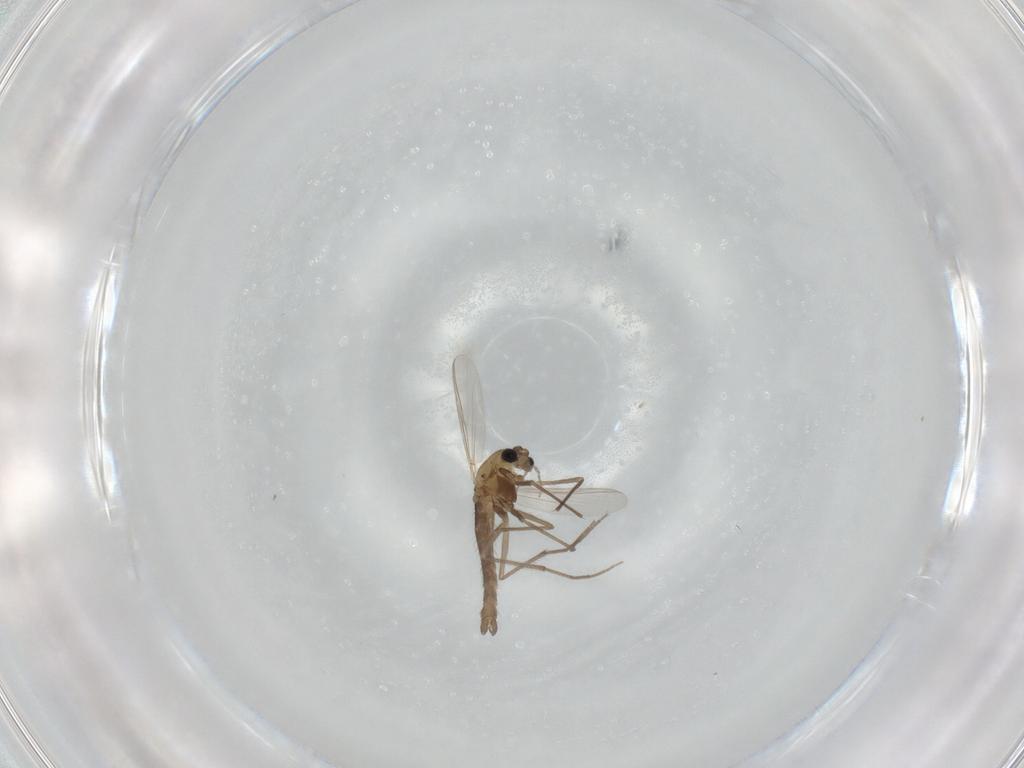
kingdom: Animalia
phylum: Arthropoda
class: Insecta
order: Diptera
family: Chironomidae
